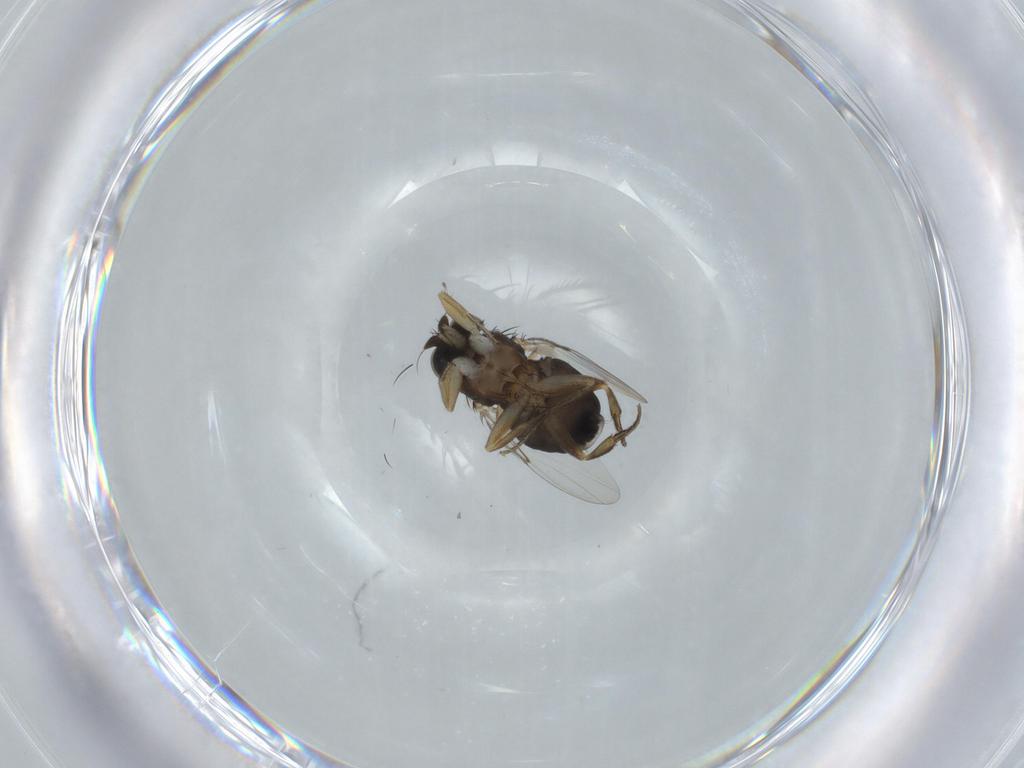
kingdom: Animalia
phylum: Arthropoda
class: Insecta
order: Diptera
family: Phoridae
